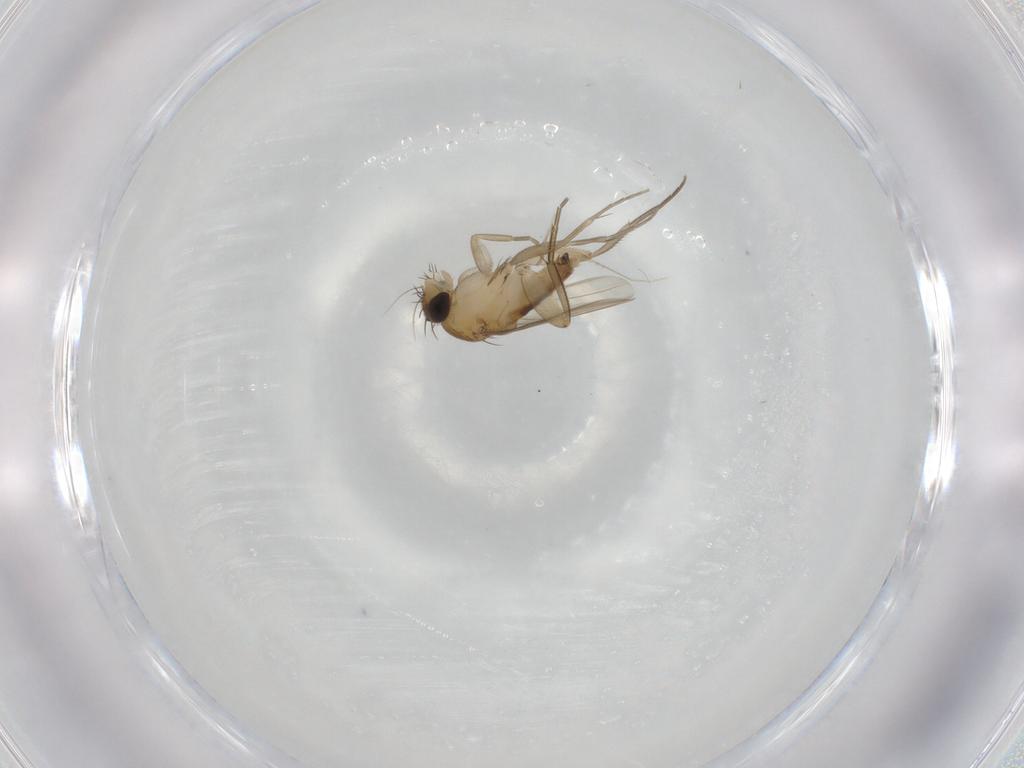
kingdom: Animalia
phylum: Arthropoda
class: Insecta
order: Diptera
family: Phoridae
